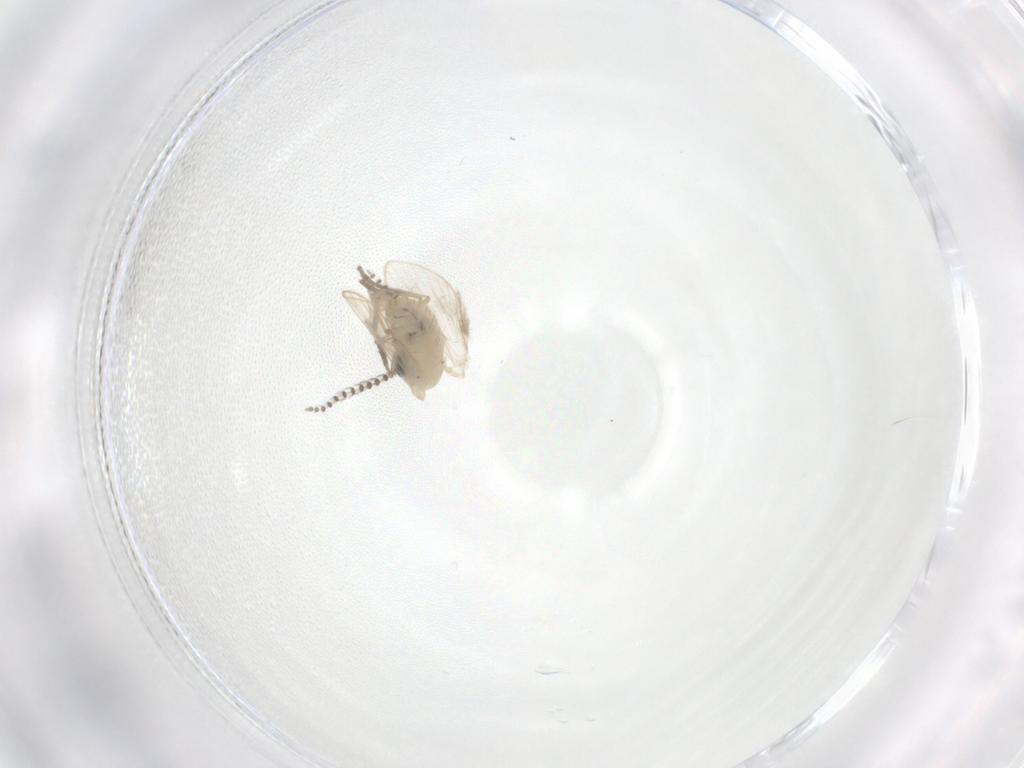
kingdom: Animalia
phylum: Arthropoda
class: Insecta
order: Diptera
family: Psychodidae
